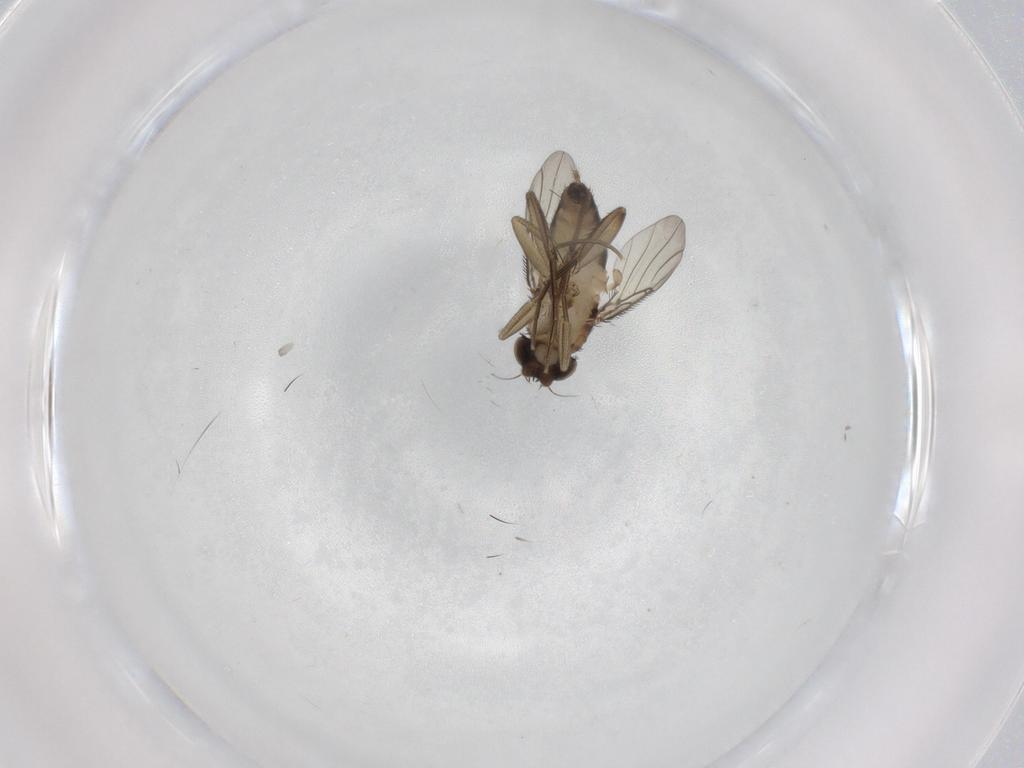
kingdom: Animalia
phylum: Arthropoda
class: Insecta
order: Diptera
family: Phoridae
